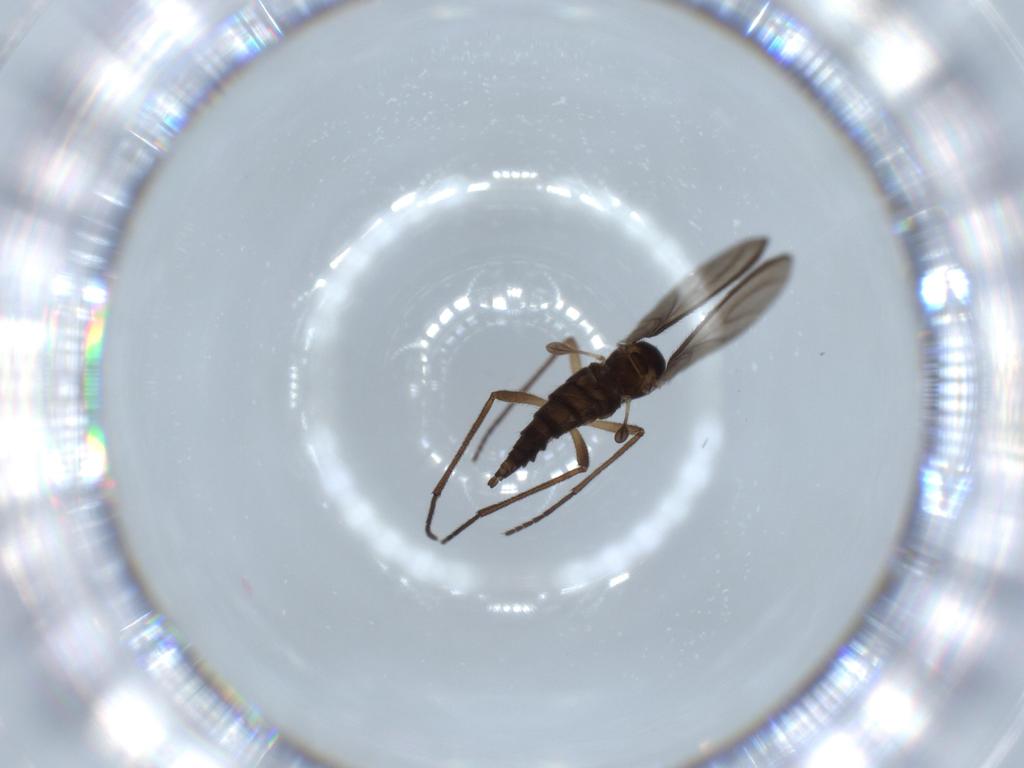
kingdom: Animalia
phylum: Arthropoda
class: Insecta
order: Diptera
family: Sciaridae
